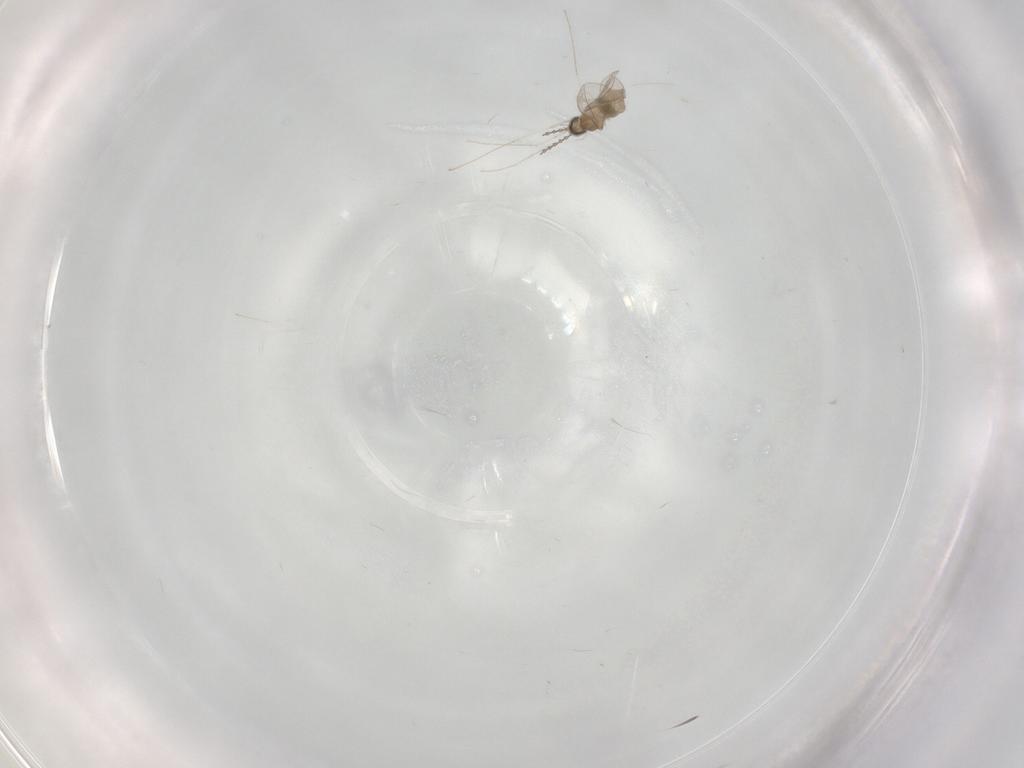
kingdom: Animalia
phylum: Arthropoda
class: Insecta
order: Diptera
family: Cecidomyiidae
